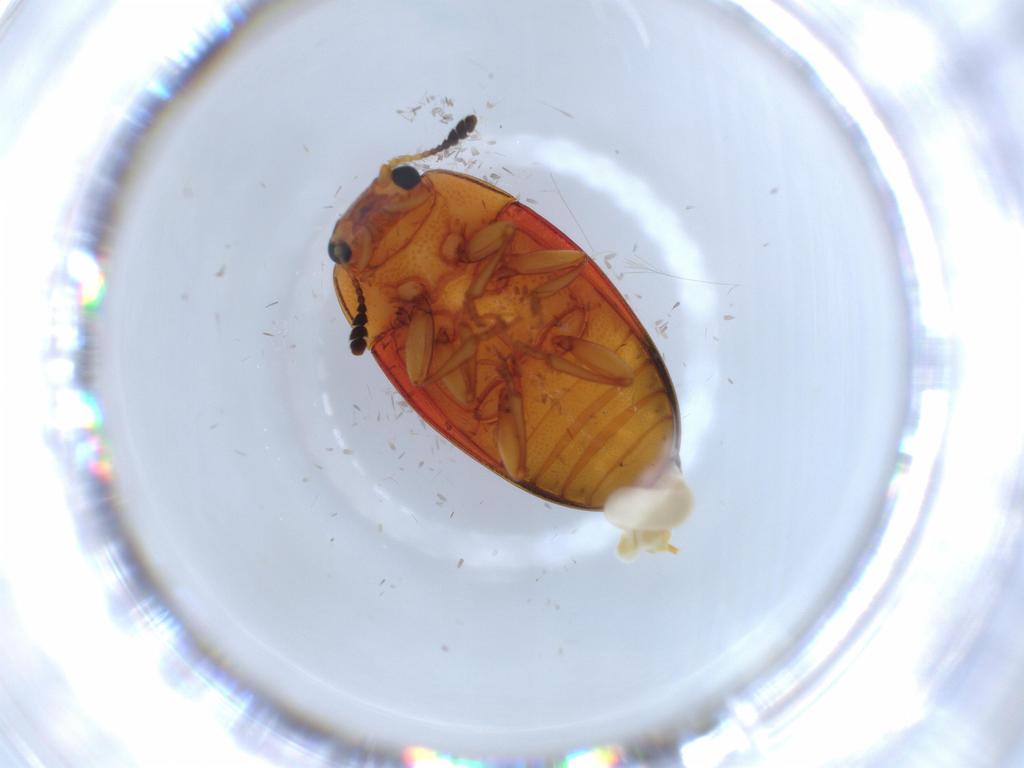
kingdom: Animalia
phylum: Arthropoda
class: Insecta
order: Coleoptera
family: Erotylidae
